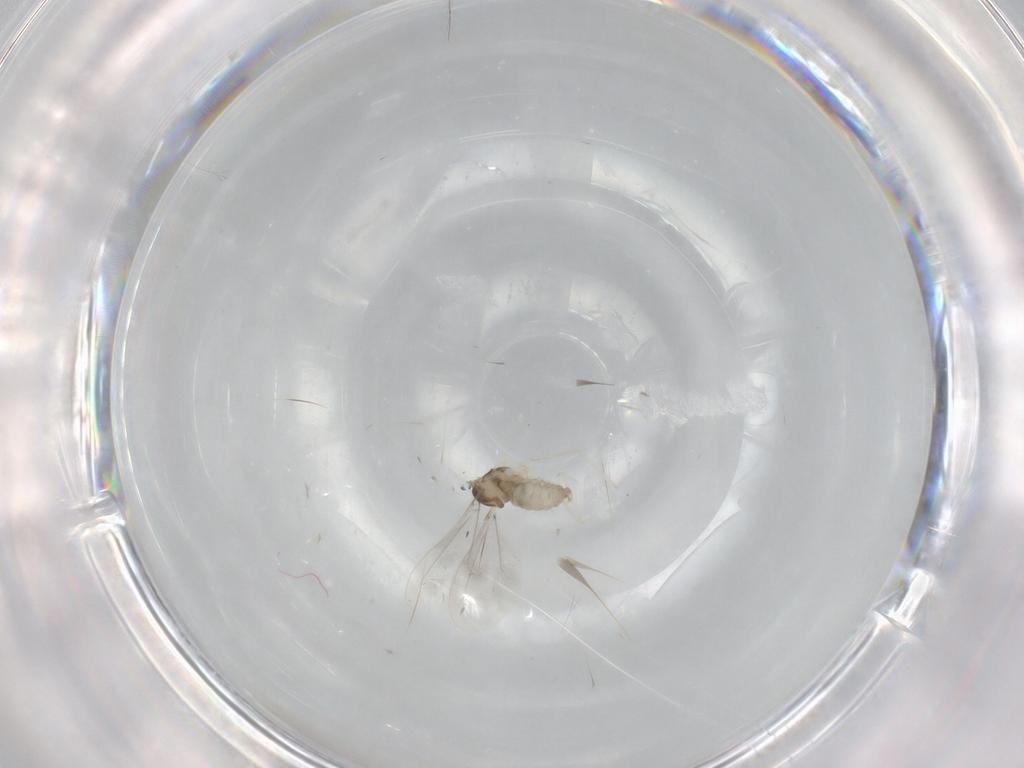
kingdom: Animalia
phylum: Arthropoda
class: Insecta
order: Diptera
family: Cecidomyiidae
